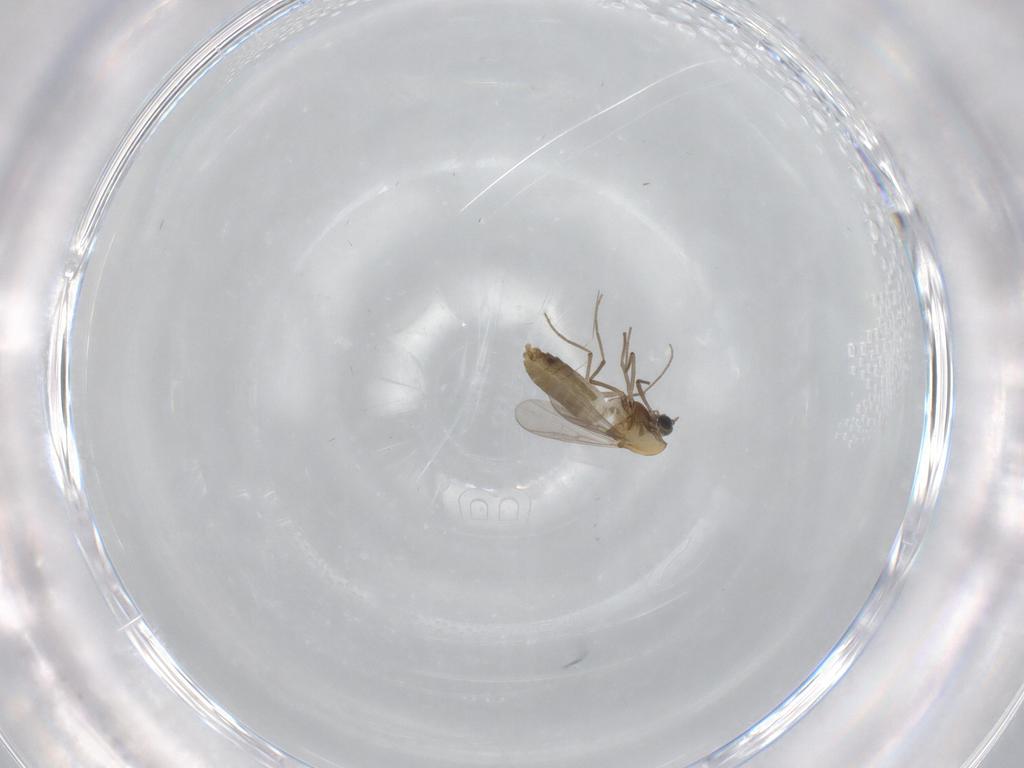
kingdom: Animalia
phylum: Arthropoda
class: Insecta
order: Diptera
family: Chironomidae
